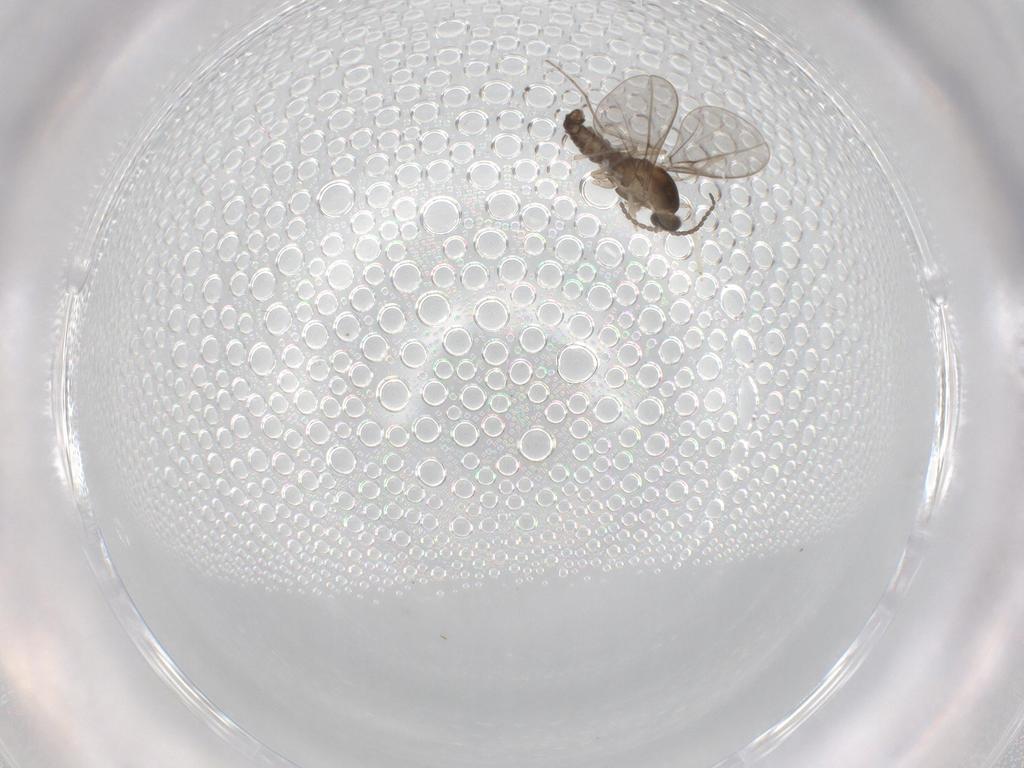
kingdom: Animalia
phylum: Arthropoda
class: Insecta
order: Diptera
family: Cecidomyiidae
